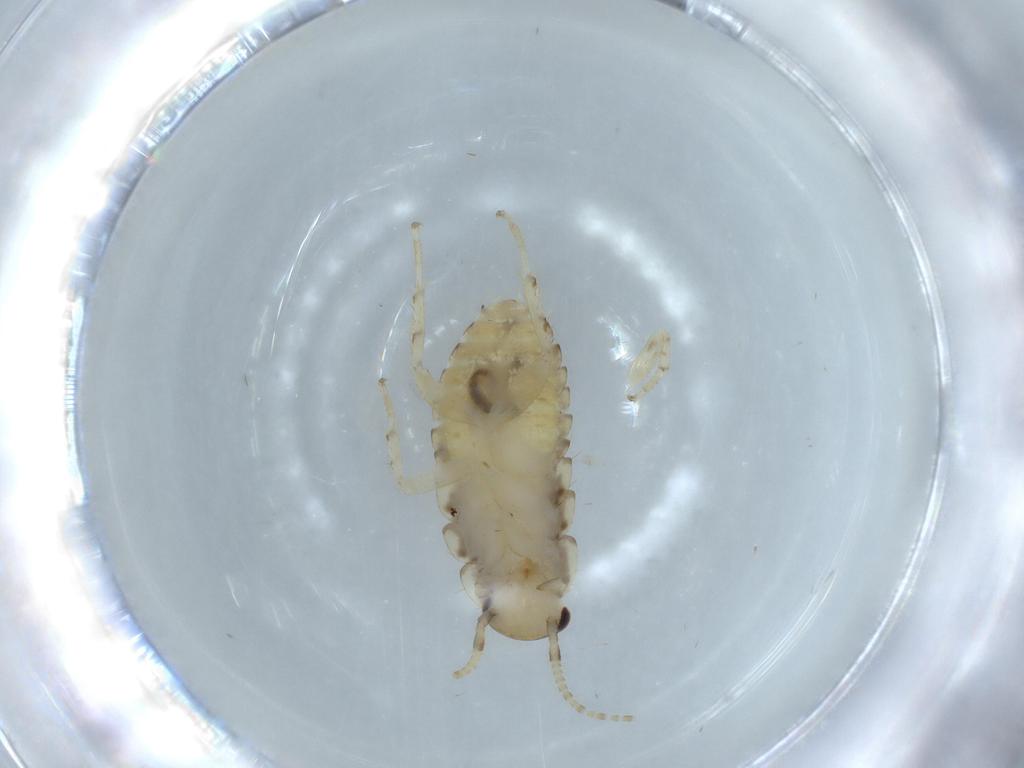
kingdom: Animalia
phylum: Arthropoda
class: Insecta
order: Blattodea
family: Ectobiidae
